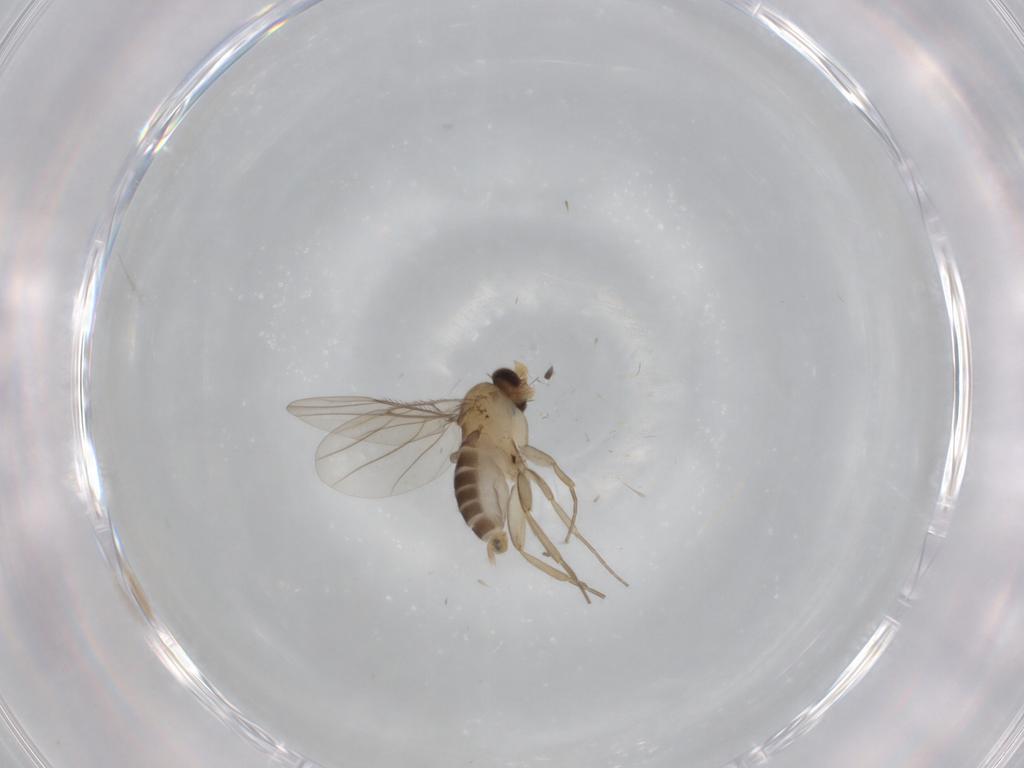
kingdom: Animalia
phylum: Arthropoda
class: Insecta
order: Diptera
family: Phoridae
